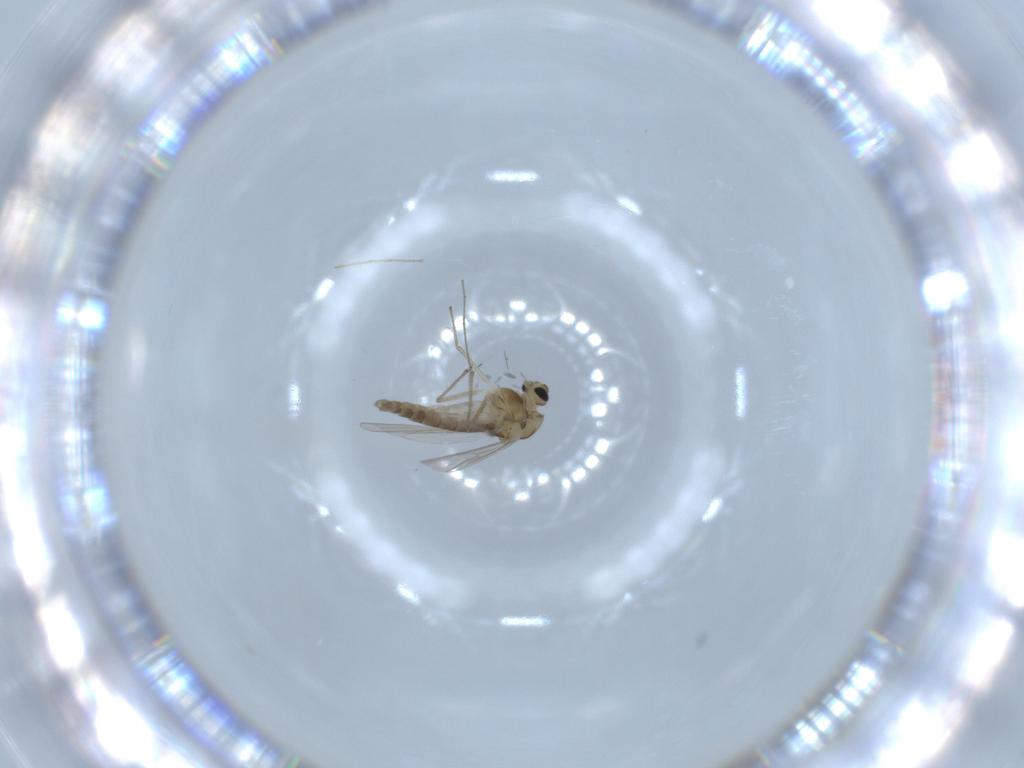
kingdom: Animalia
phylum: Arthropoda
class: Insecta
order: Diptera
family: Chironomidae
